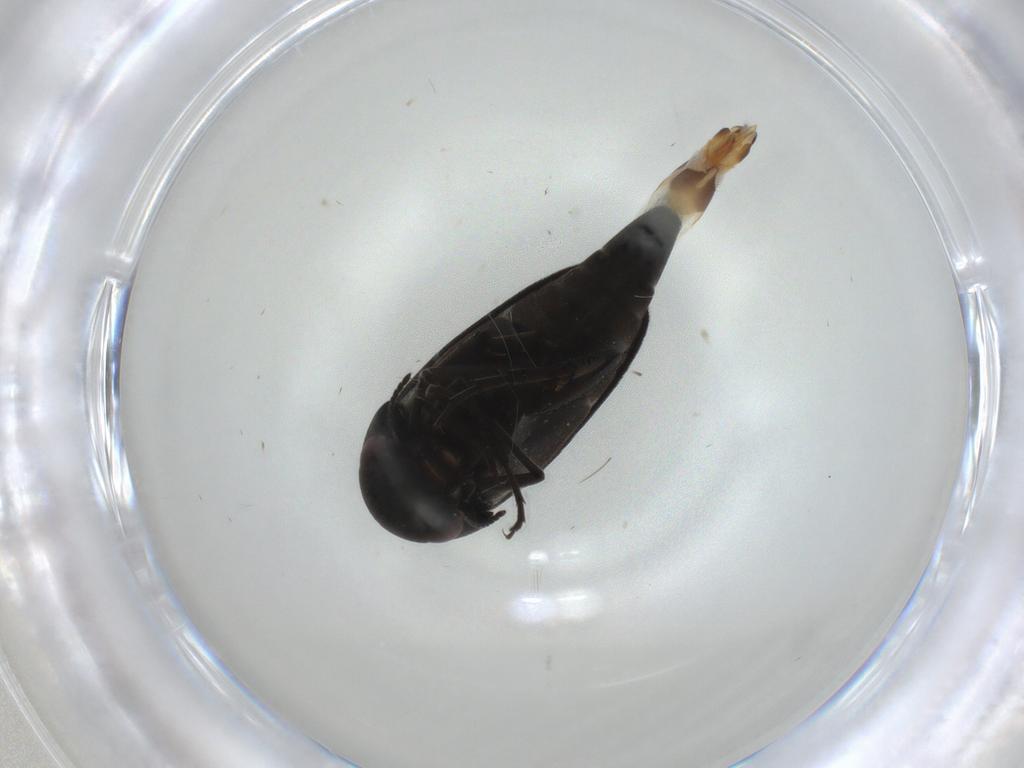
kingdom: Animalia
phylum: Arthropoda
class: Insecta
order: Coleoptera
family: Mordellidae
